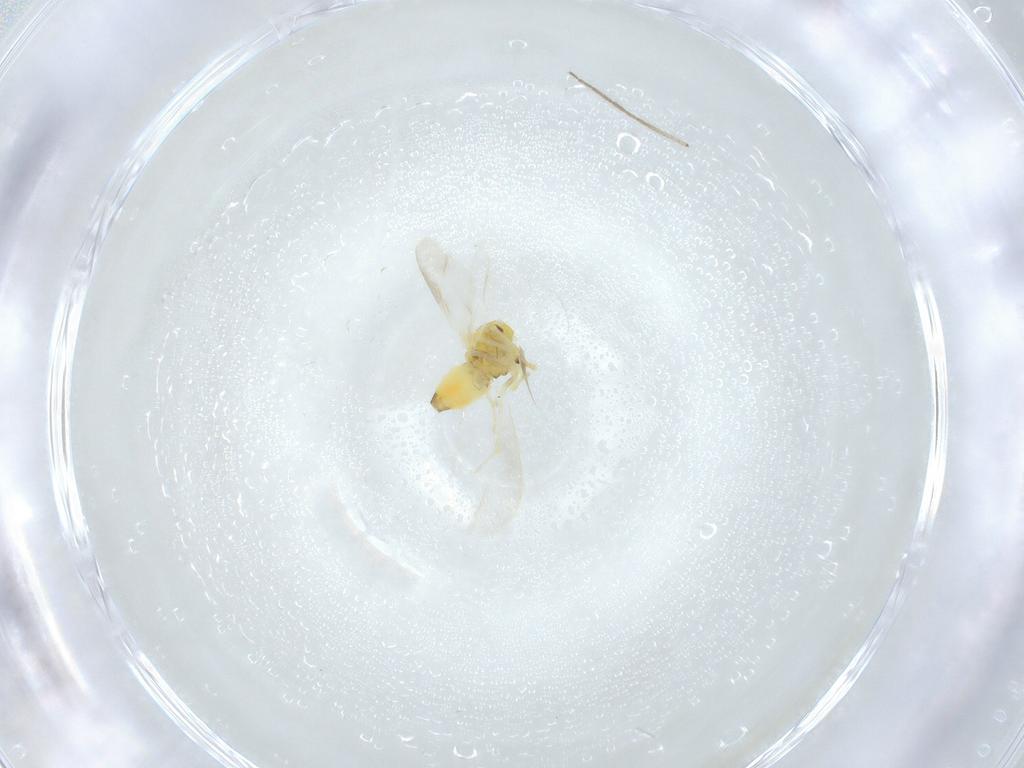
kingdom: Animalia
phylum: Arthropoda
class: Insecta
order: Hemiptera
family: Aleyrodidae
